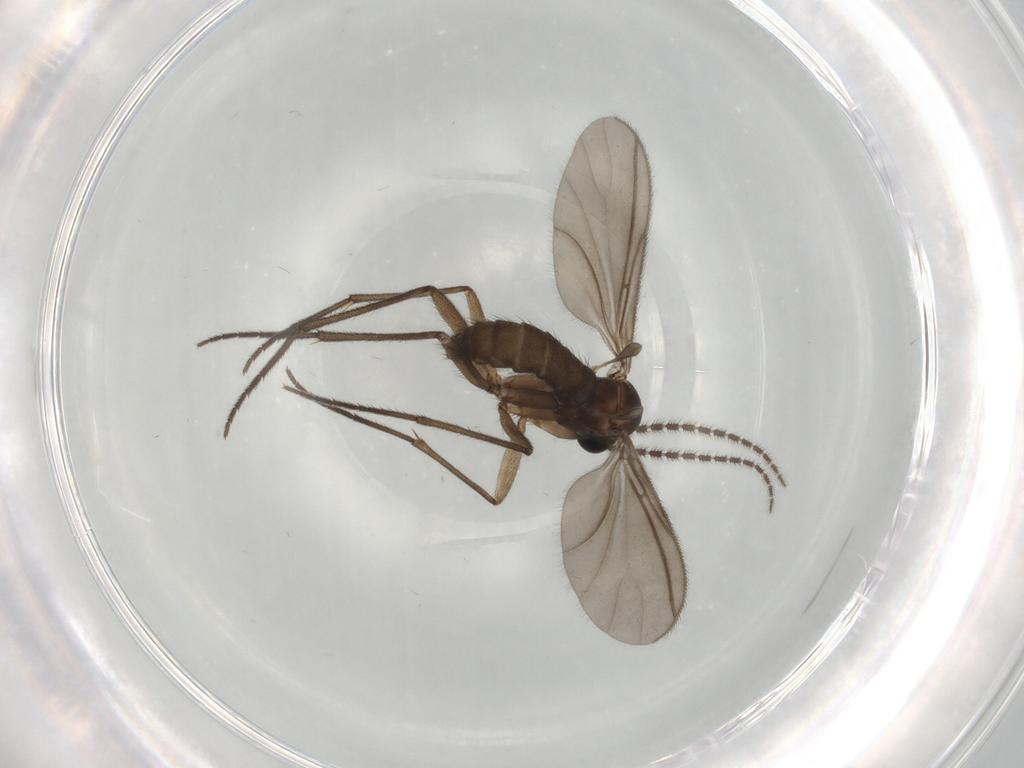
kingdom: Animalia
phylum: Arthropoda
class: Insecta
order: Diptera
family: Sciaridae
